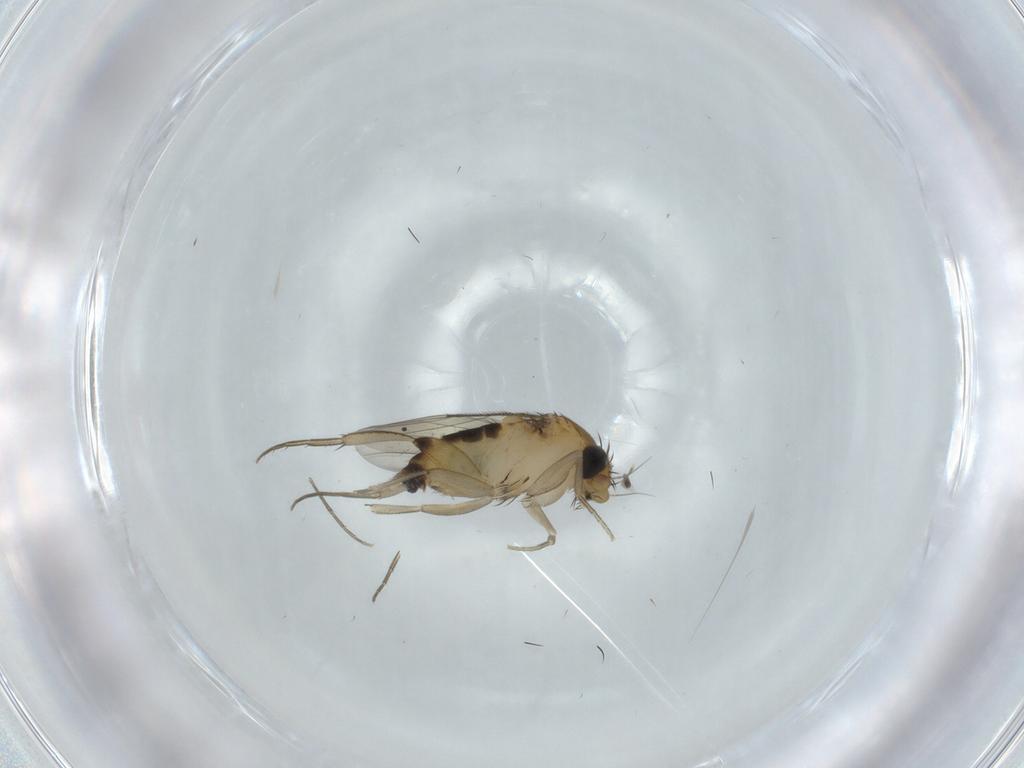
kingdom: Animalia
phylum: Arthropoda
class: Insecta
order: Diptera
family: Phoridae
